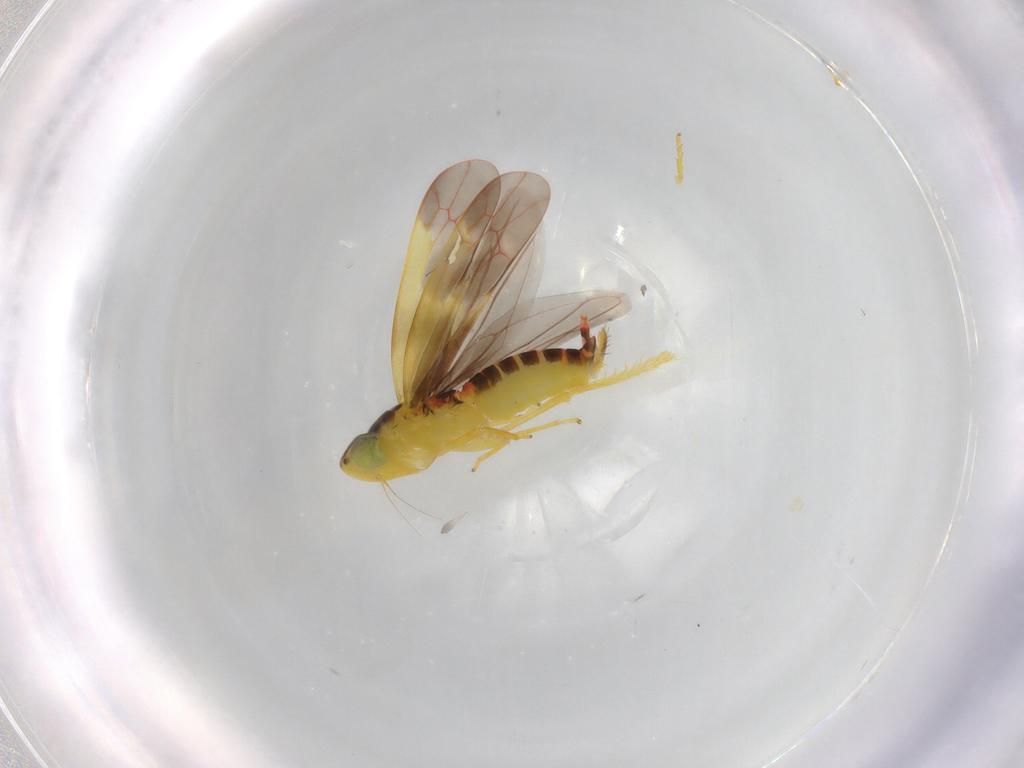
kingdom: Animalia
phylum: Arthropoda
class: Insecta
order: Hemiptera
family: Cicadellidae
